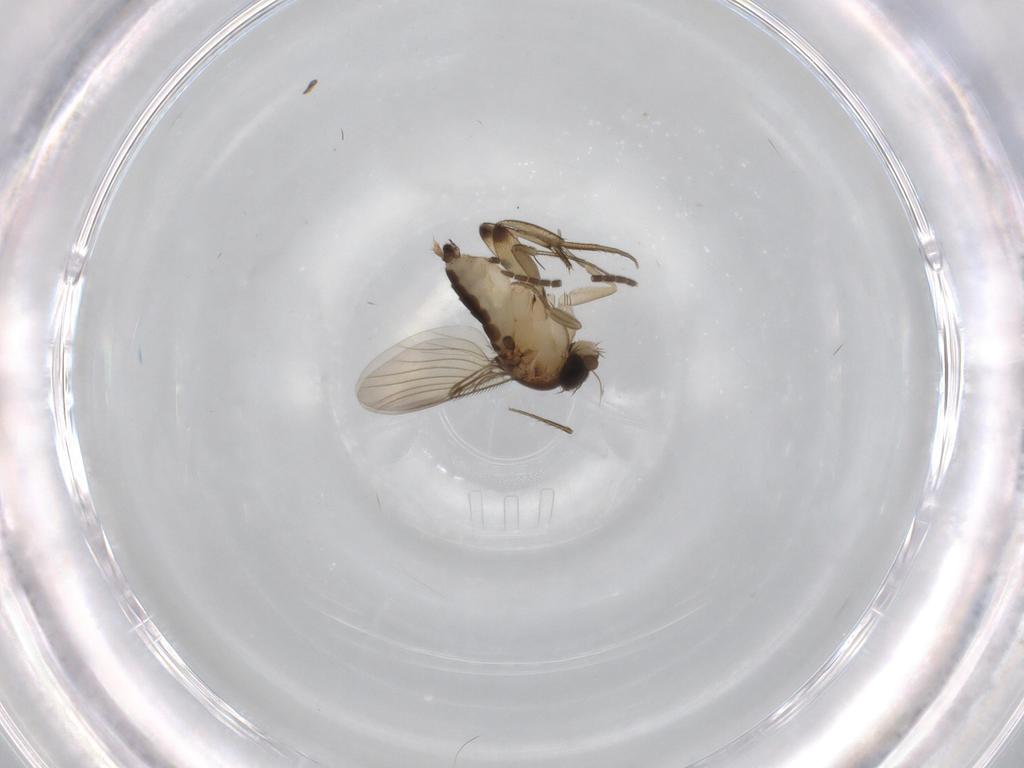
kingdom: Animalia
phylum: Arthropoda
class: Insecta
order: Diptera
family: Phoridae
